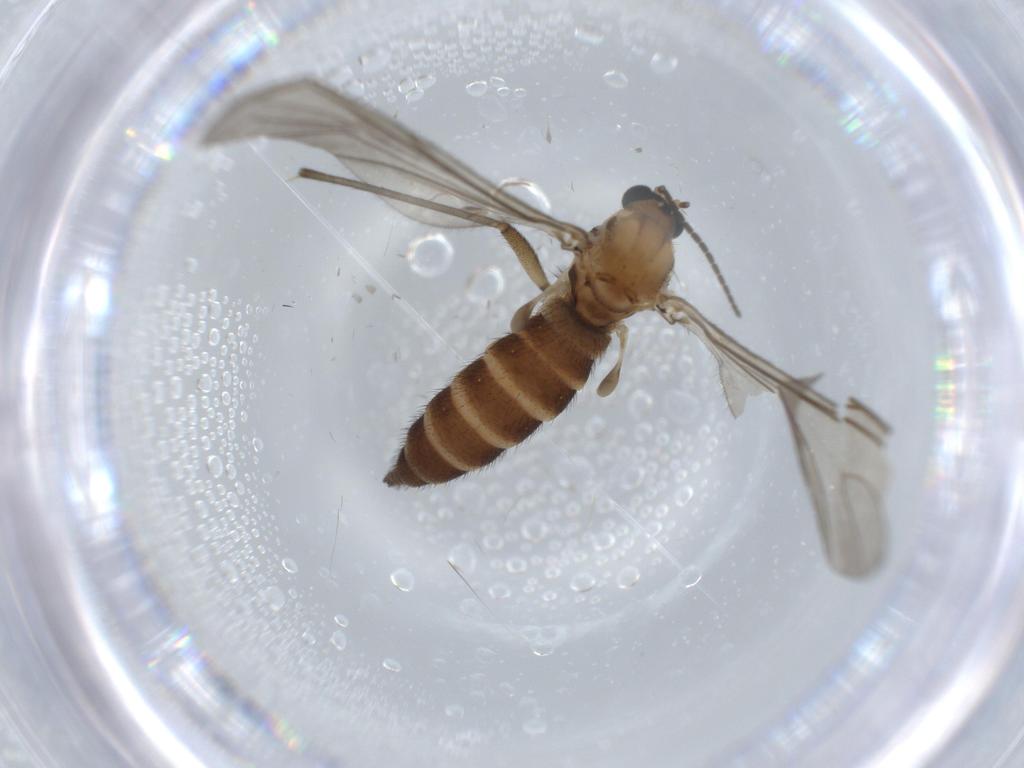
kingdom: Animalia
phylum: Arthropoda
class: Insecta
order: Diptera
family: Sciaridae
